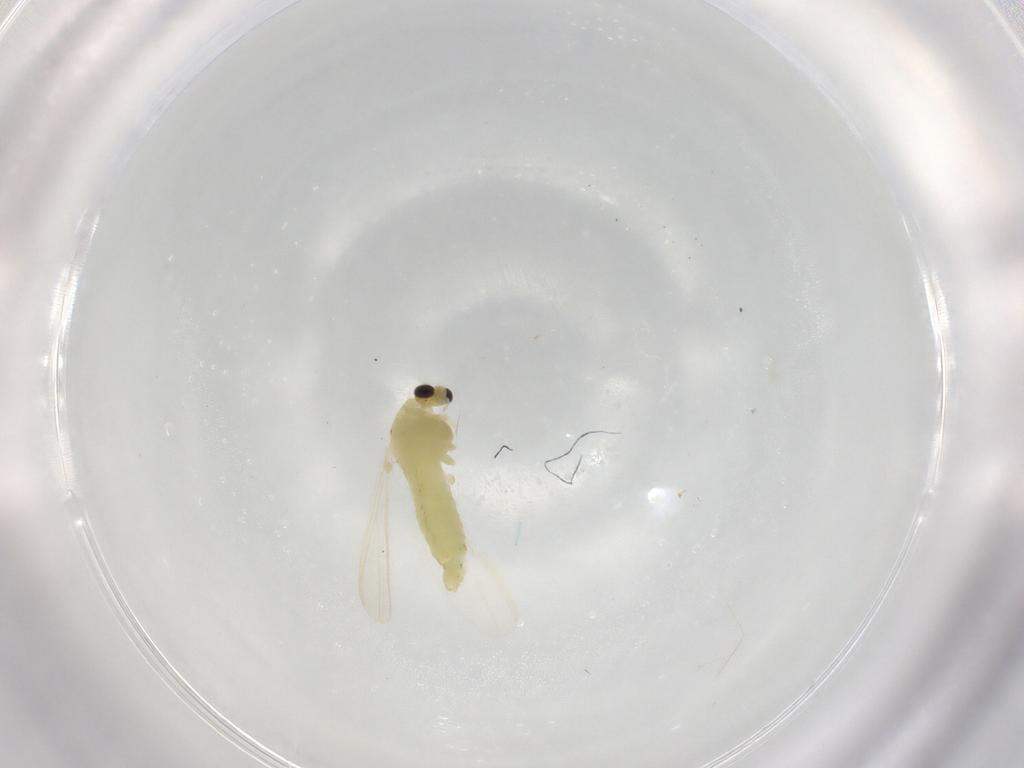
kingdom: Animalia
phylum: Arthropoda
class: Insecta
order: Diptera
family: Chironomidae
